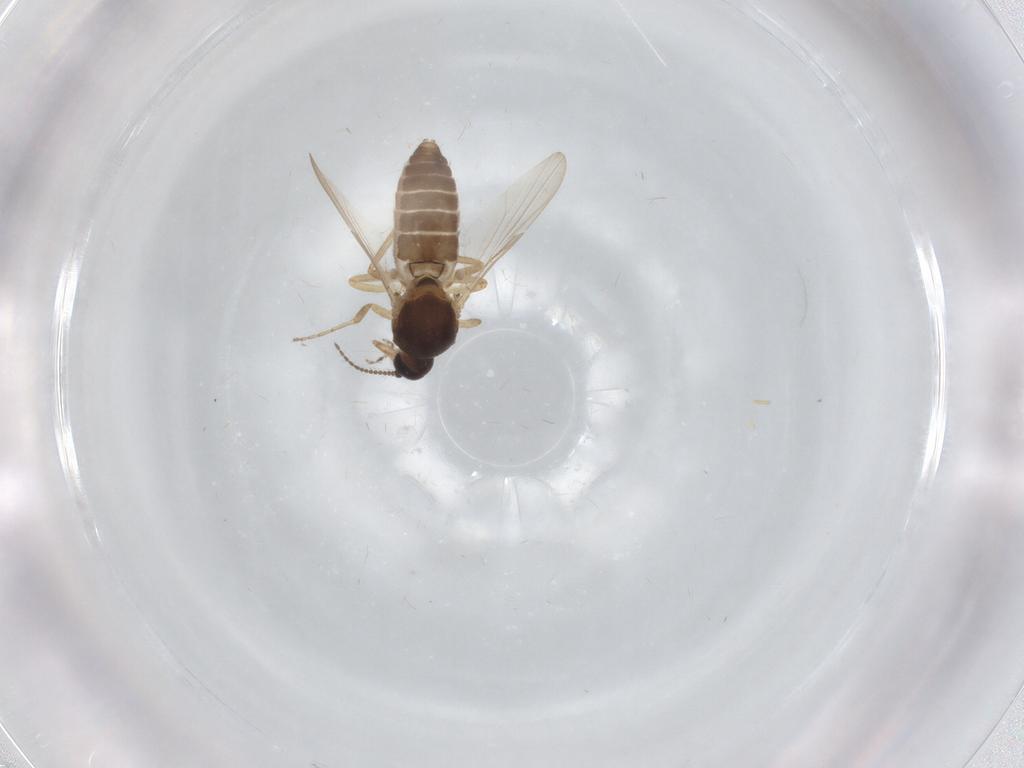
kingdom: Animalia
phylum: Arthropoda
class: Insecta
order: Diptera
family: Ceratopogonidae
